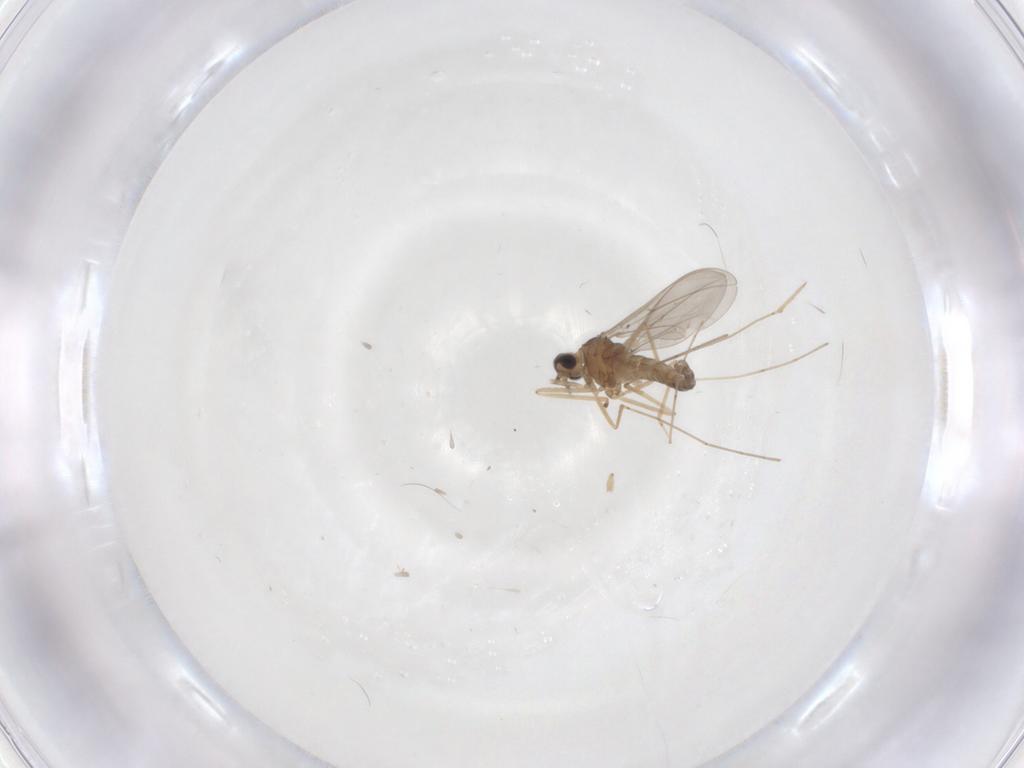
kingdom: Animalia
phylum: Arthropoda
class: Insecta
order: Diptera
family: Cecidomyiidae
